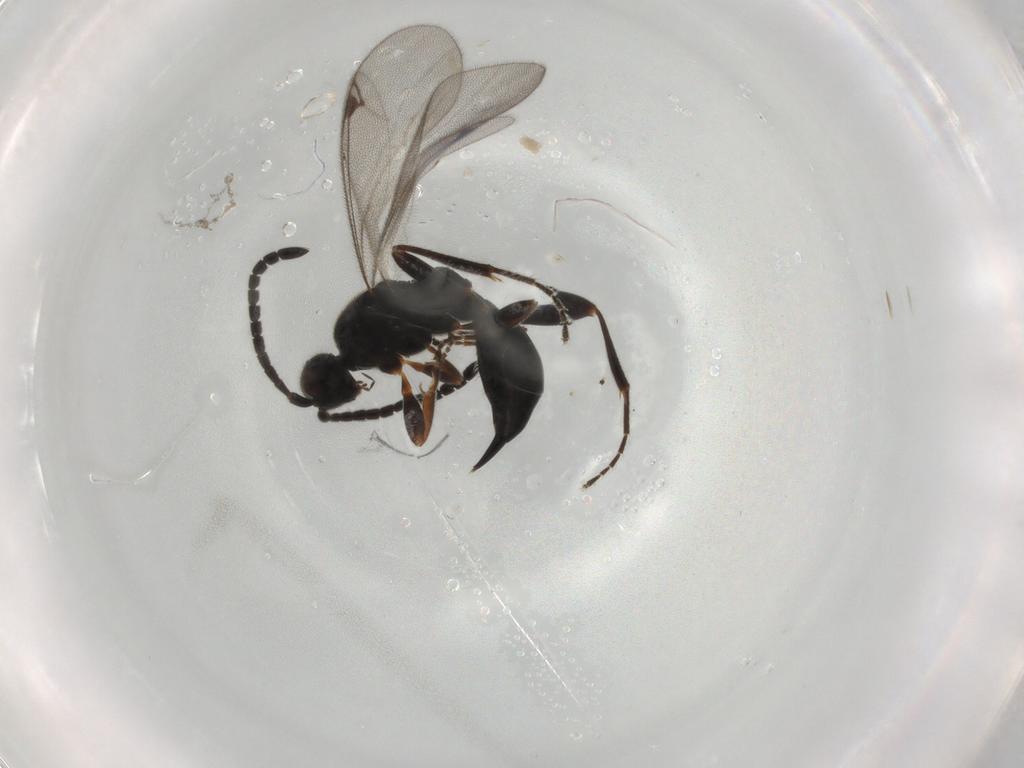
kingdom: Animalia
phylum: Arthropoda
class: Insecta
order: Hymenoptera
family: Proctotrupidae
